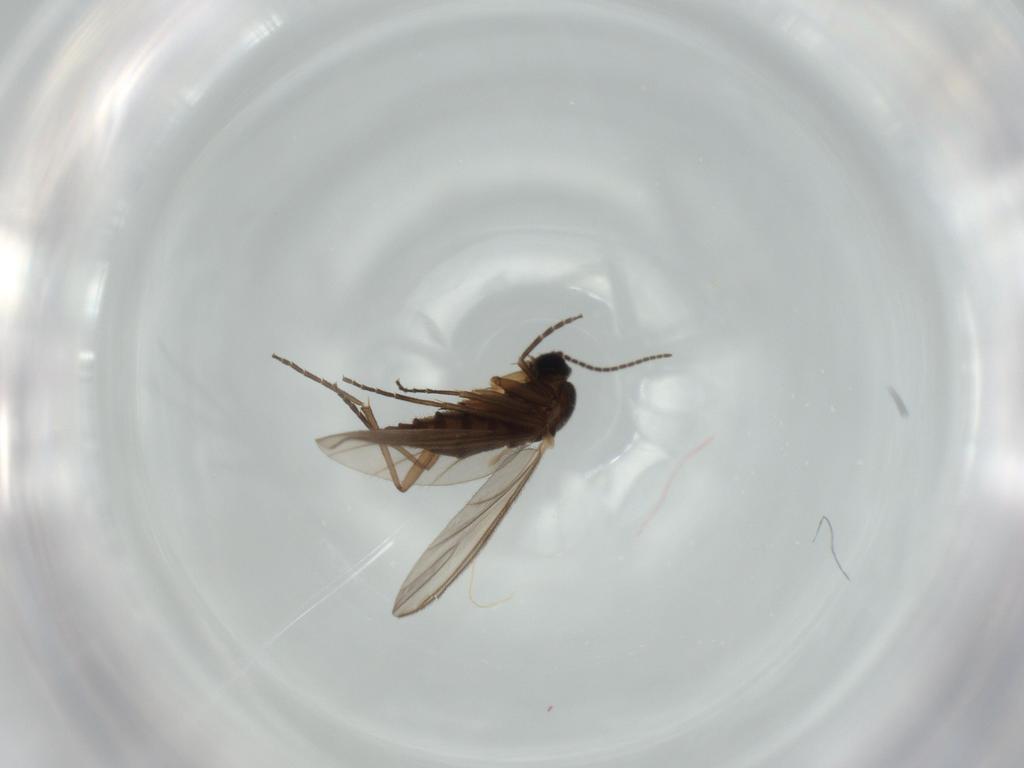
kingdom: Animalia
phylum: Arthropoda
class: Insecta
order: Diptera
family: Sciaridae
